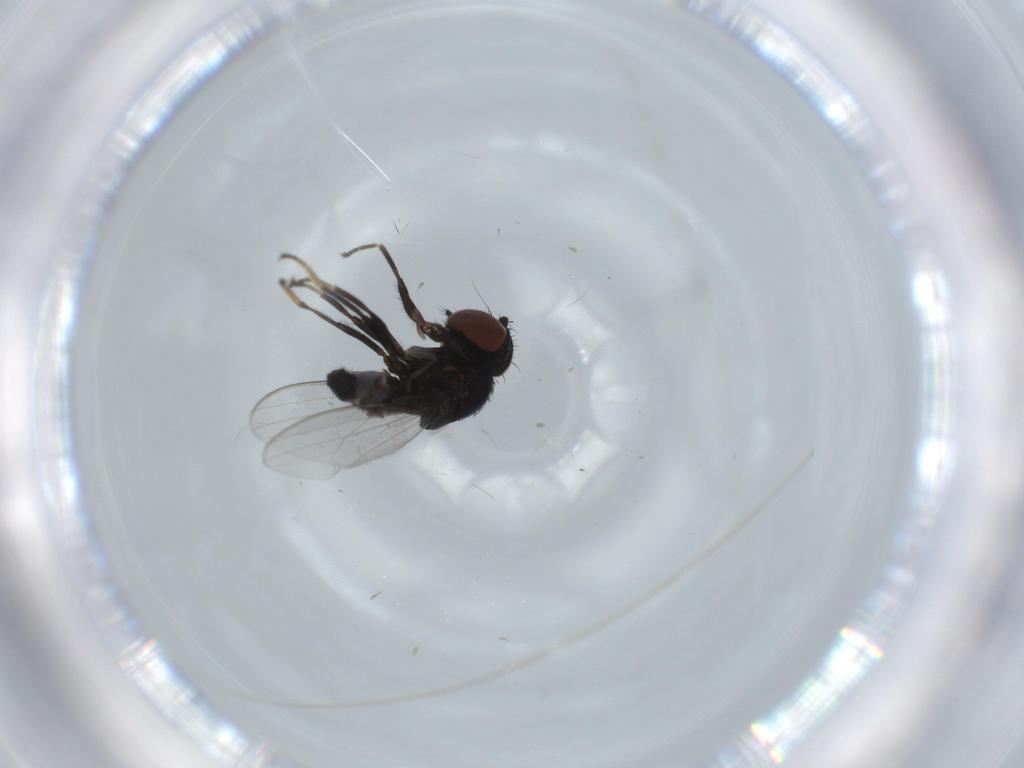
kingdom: Animalia
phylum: Arthropoda
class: Insecta
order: Diptera
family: Milichiidae
